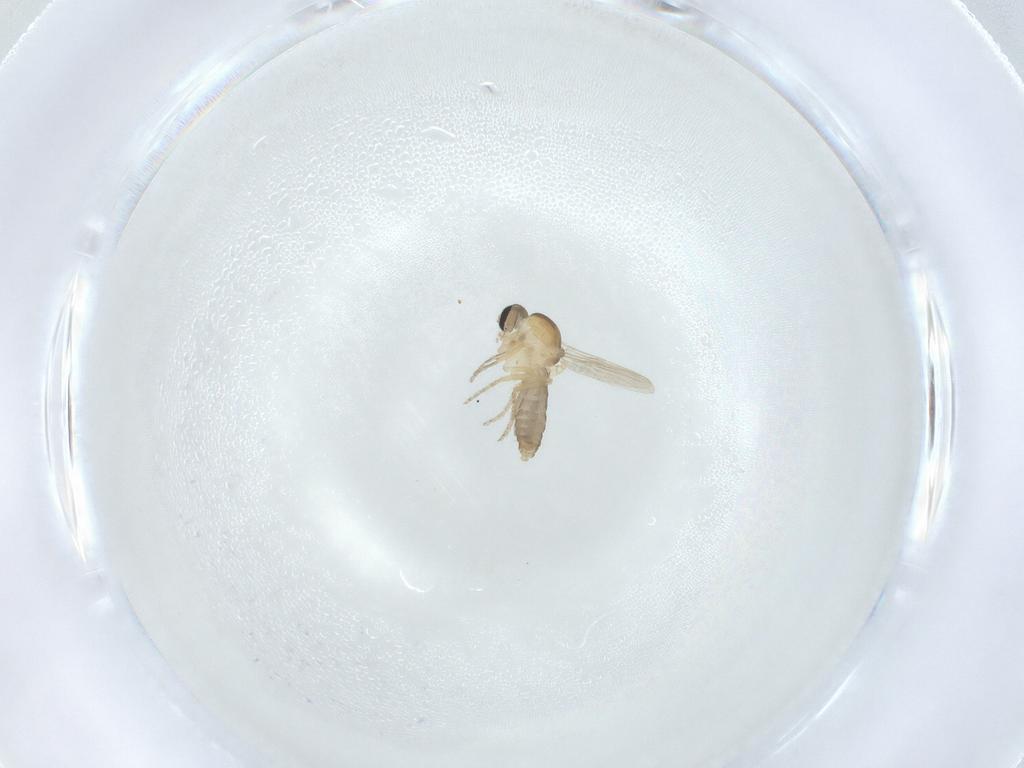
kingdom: Animalia
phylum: Arthropoda
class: Insecta
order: Diptera
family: Ceratopogonidae
